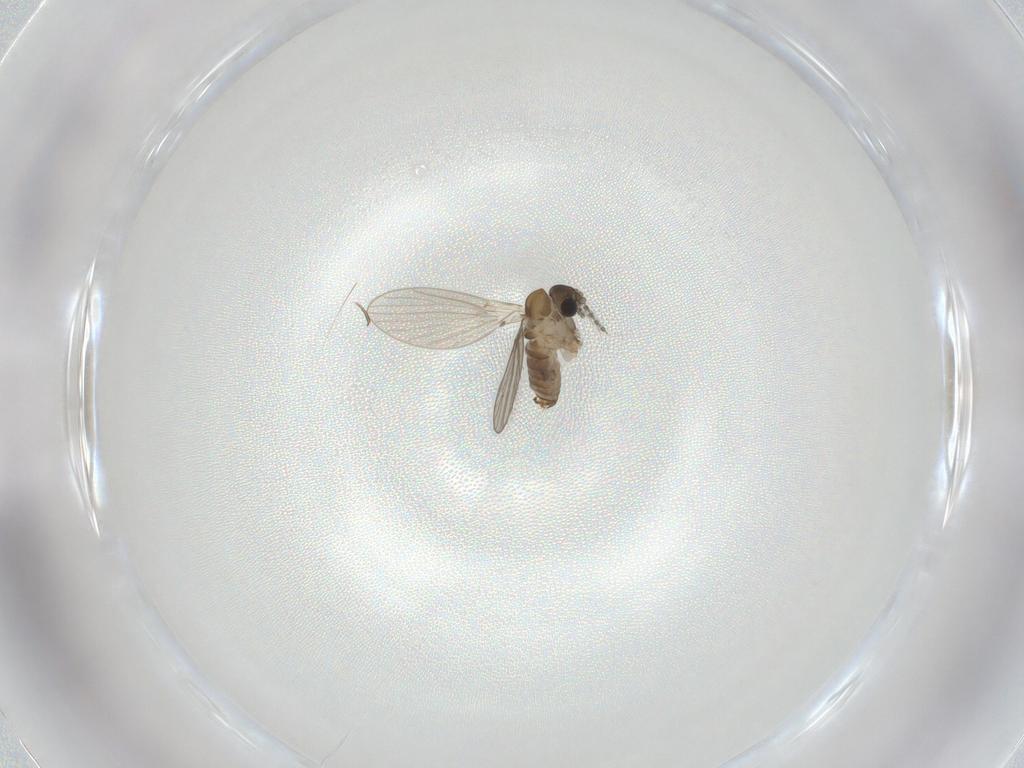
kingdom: Animalia
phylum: Arthropoda
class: Insecta
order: Diptera
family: Phoridae
